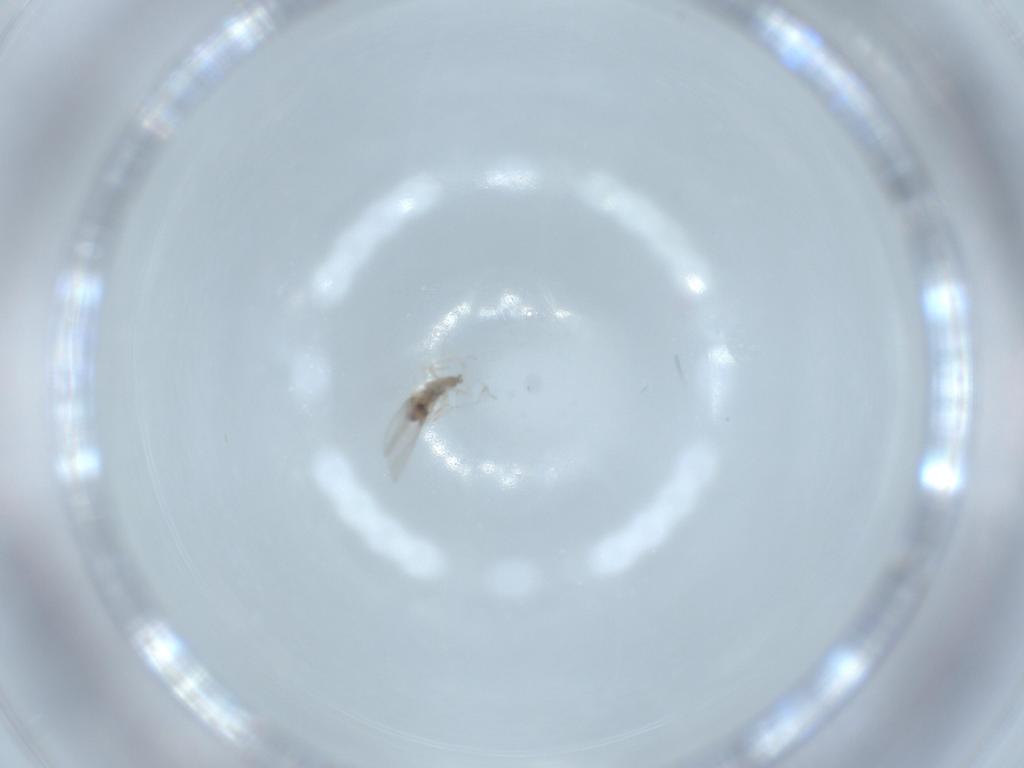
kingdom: Animalia
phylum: Arthropoda
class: Insecta
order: Diptera
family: Cecidomyiidae
